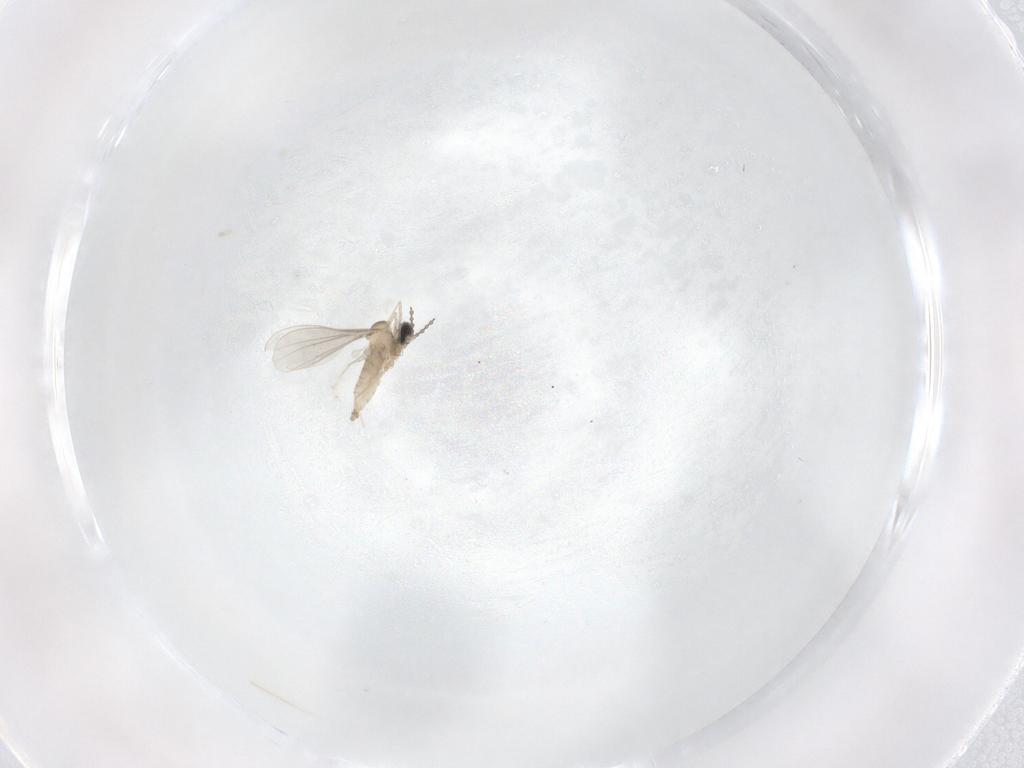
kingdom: Animalia
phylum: Arthropoda
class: Insecta
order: Diptera
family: Cecidomyiidae
